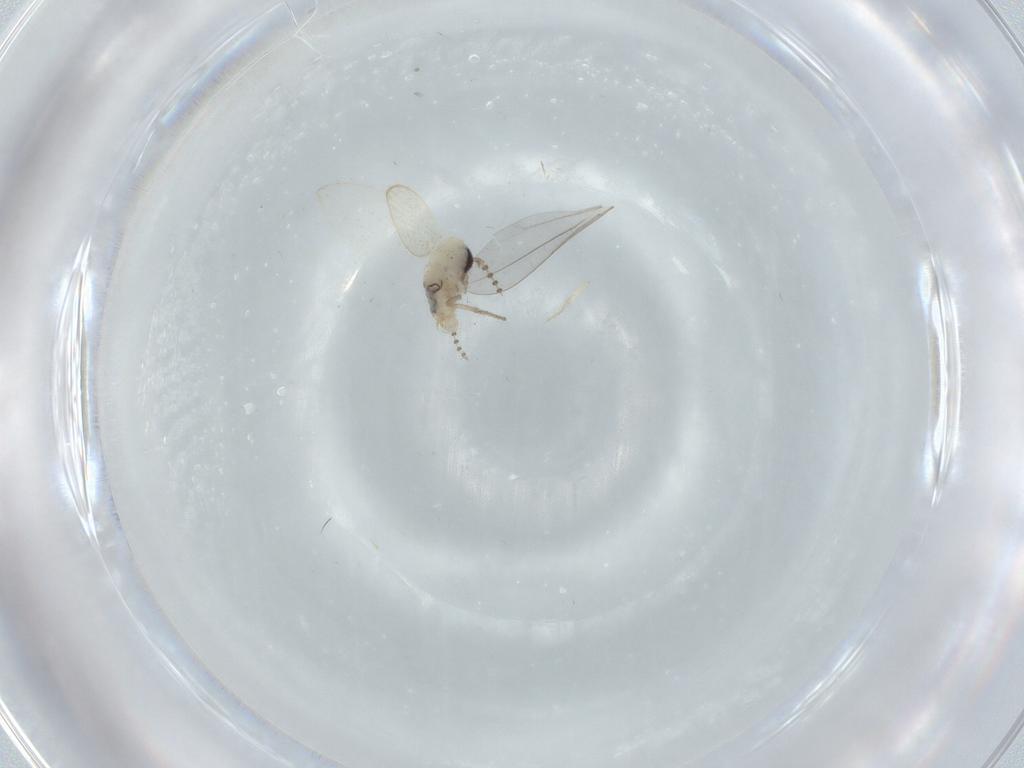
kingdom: Animalia
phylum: Arthropoda
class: Insecta
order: Diptera
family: Psychodidae
